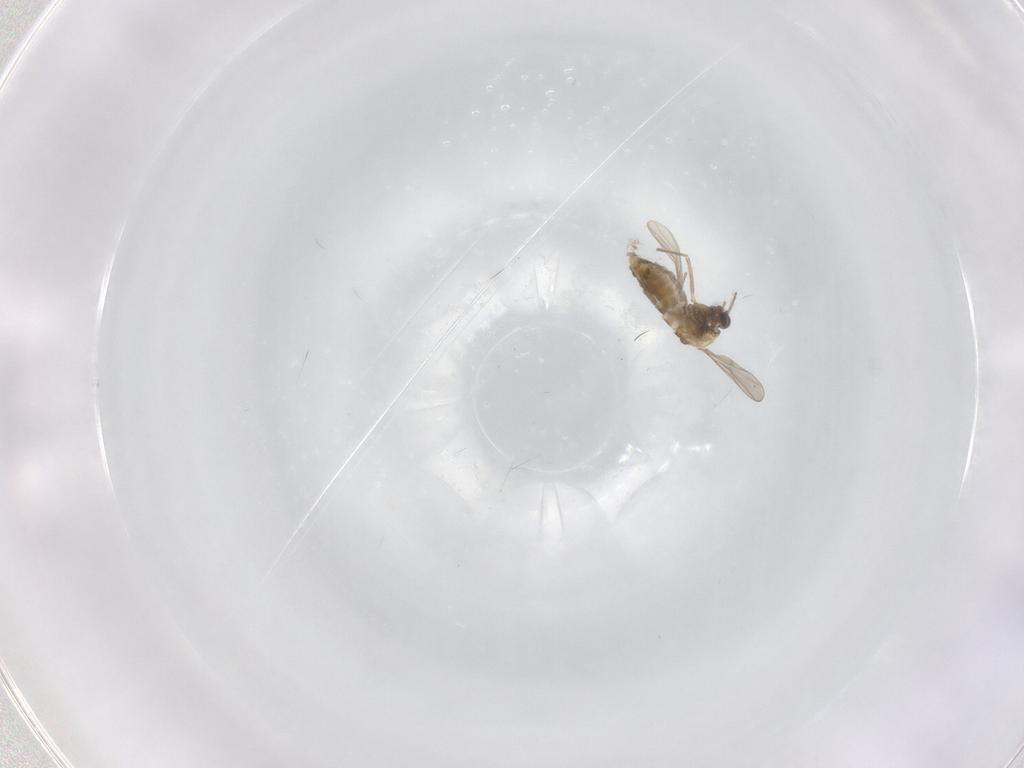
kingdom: Animalia
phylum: Arthropoda
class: Insecta
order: Diptera
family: Chironomidae
